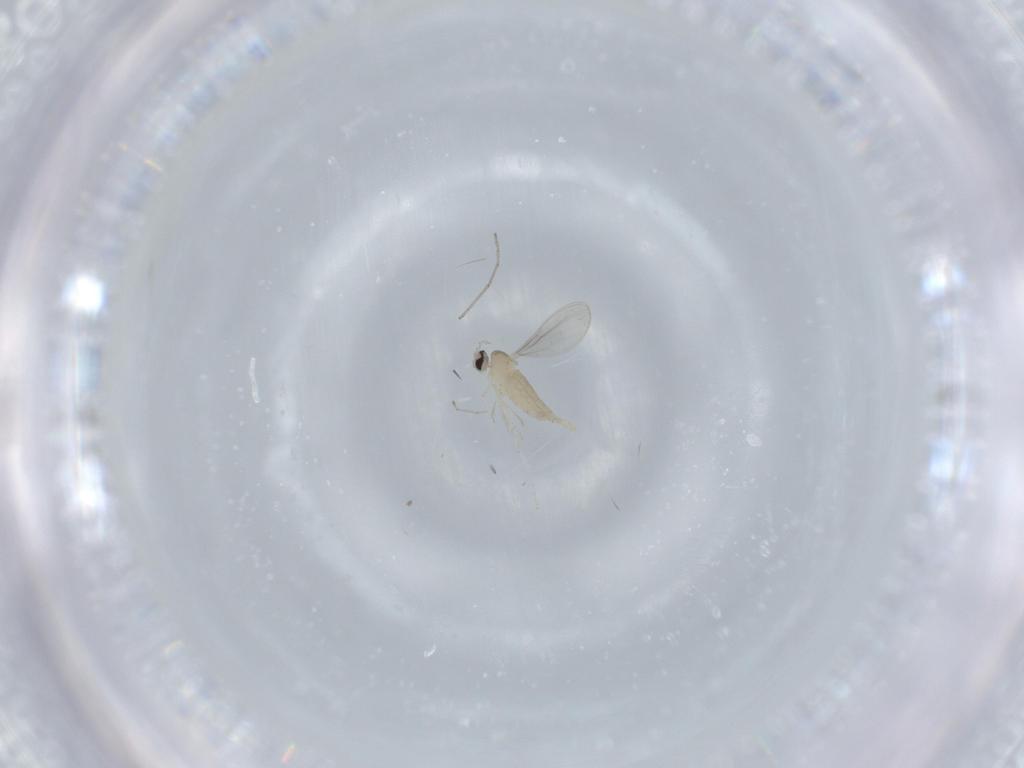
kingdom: Animalia
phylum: Arthropoda
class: Insecta
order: Diptera
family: Cecidomyiidae
